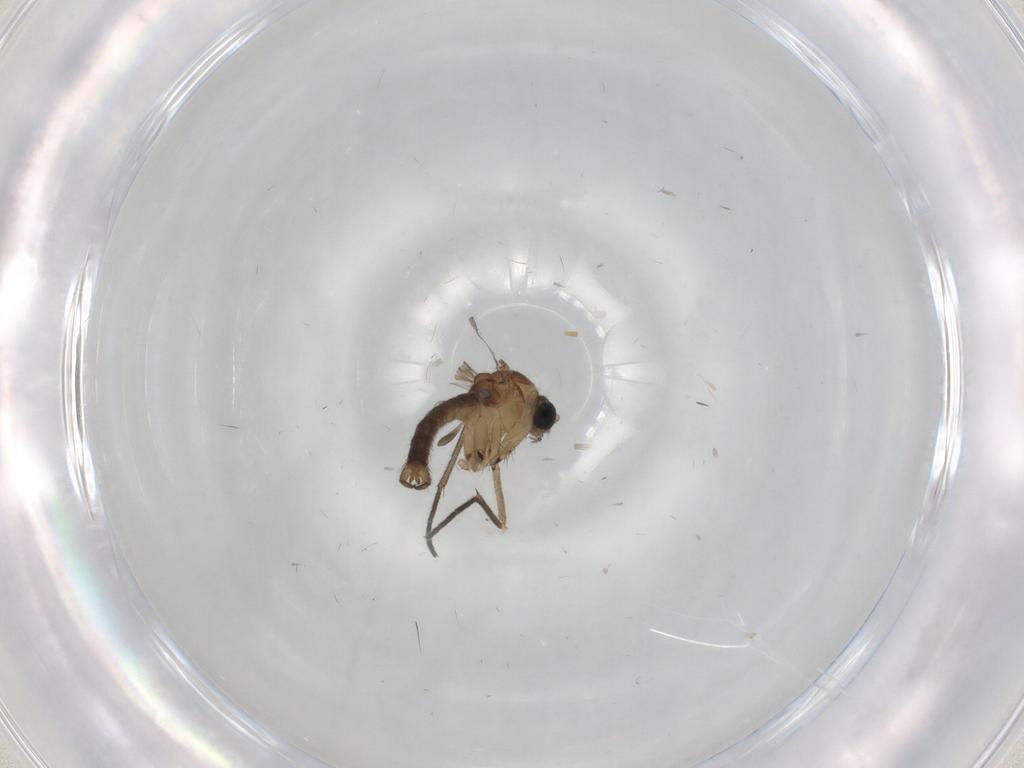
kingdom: Animalia
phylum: Arthropoda
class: Insecta
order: Diptera
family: Sciaridae
